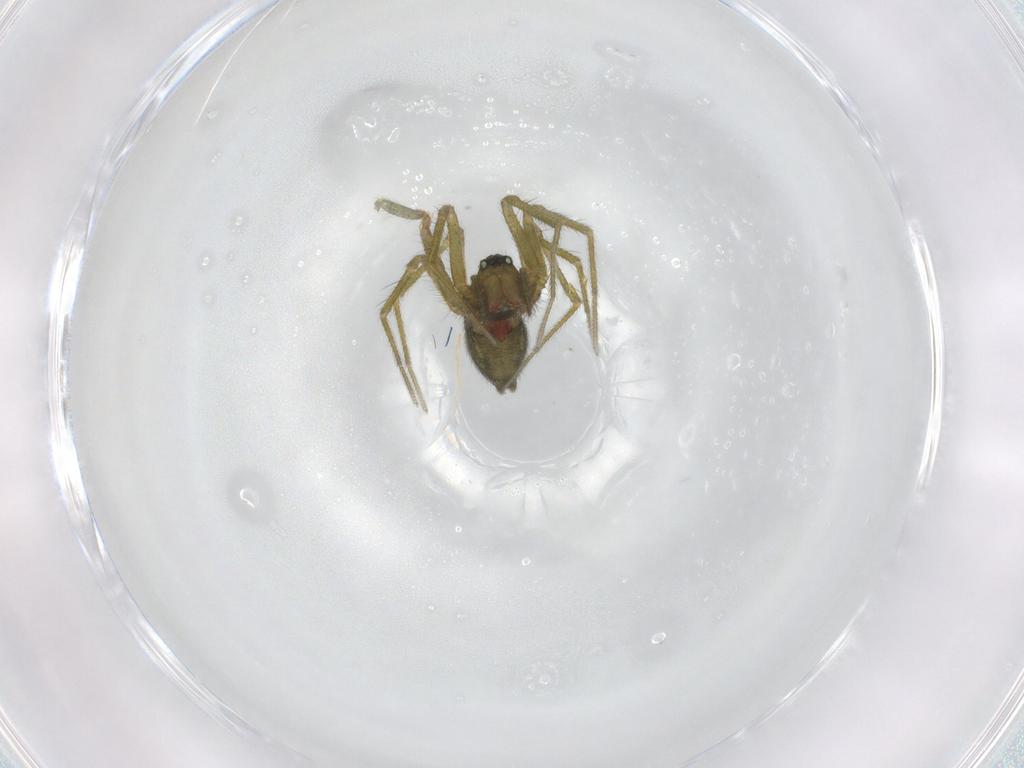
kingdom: Animalia
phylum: Arthropoda
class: Arachnida
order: Araneae
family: Linyphiidae
